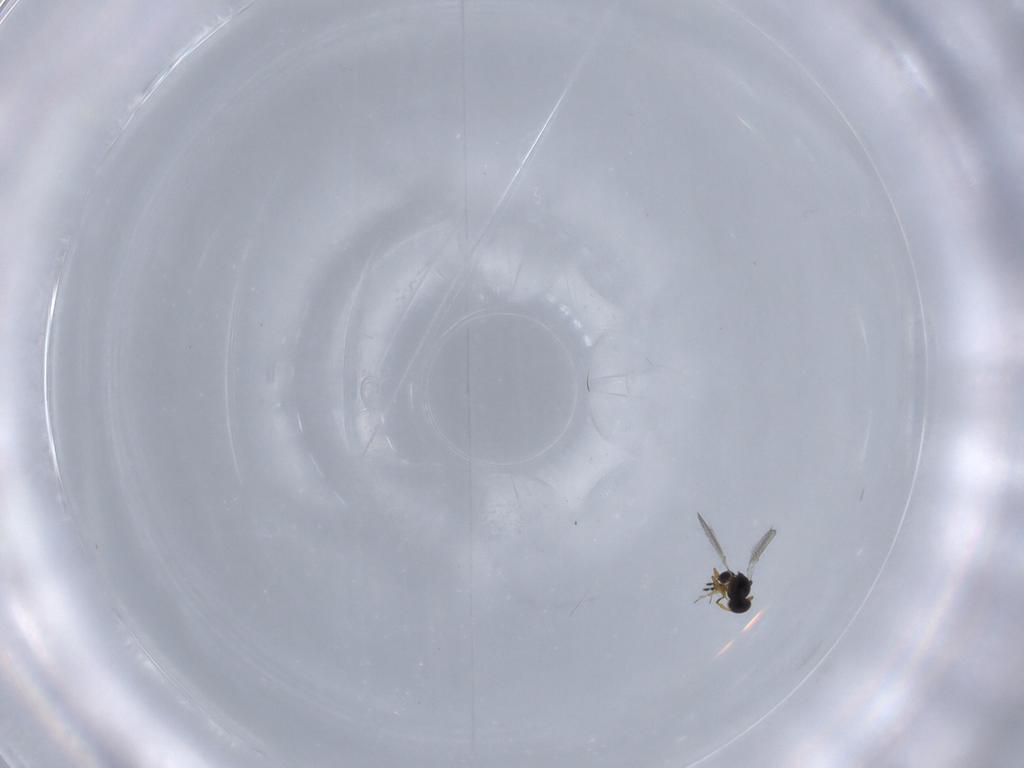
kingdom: Animalia
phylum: Arthropoda
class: Insecta
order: Hymenoptera
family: Platygastridae
